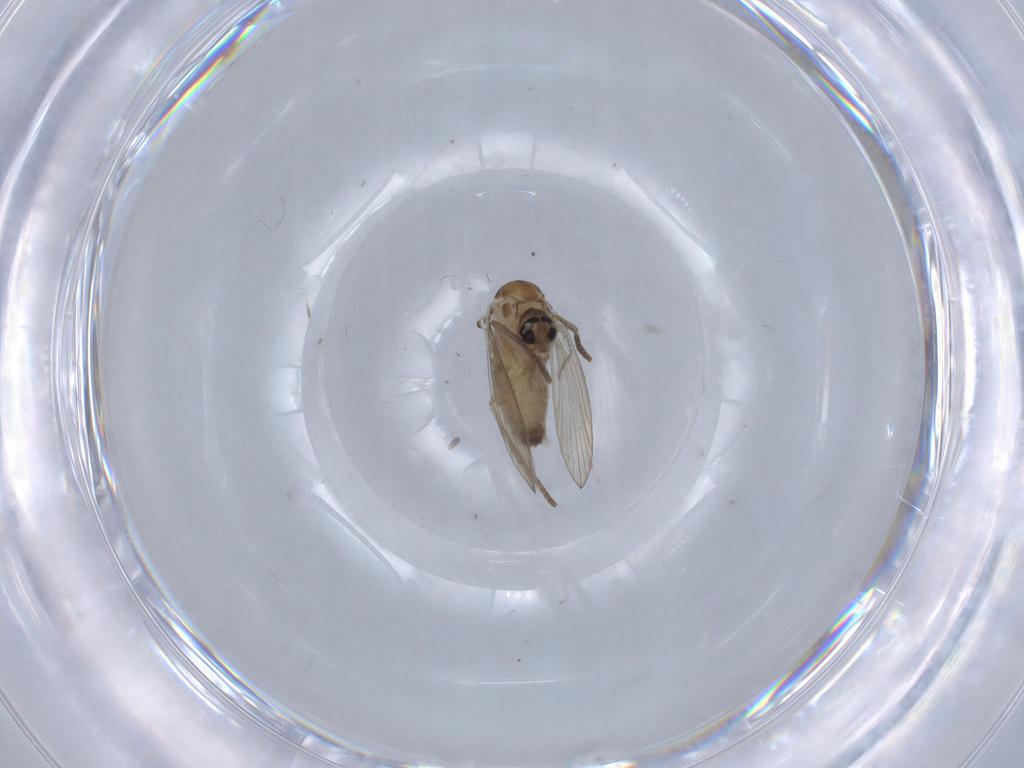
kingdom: Animalia
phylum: Arthropoda
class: Insecta
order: Diptera
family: Psychodidae
